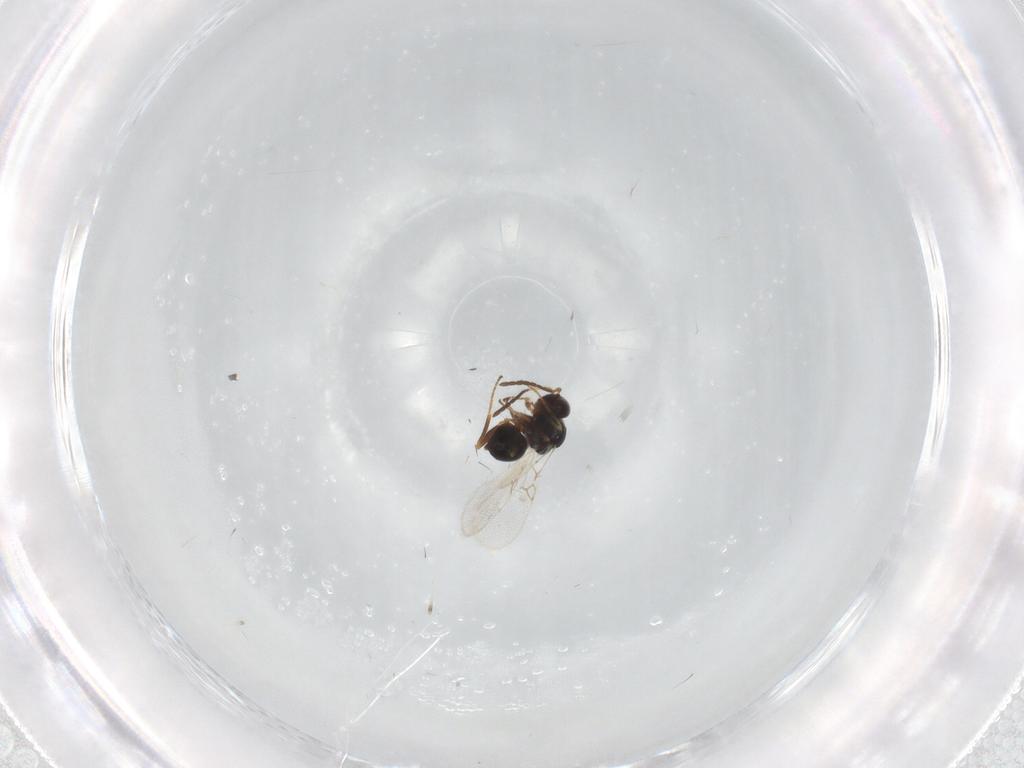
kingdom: Animalia
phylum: Arthropoda
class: Insecta
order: Hymenoptera
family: Figitidae
